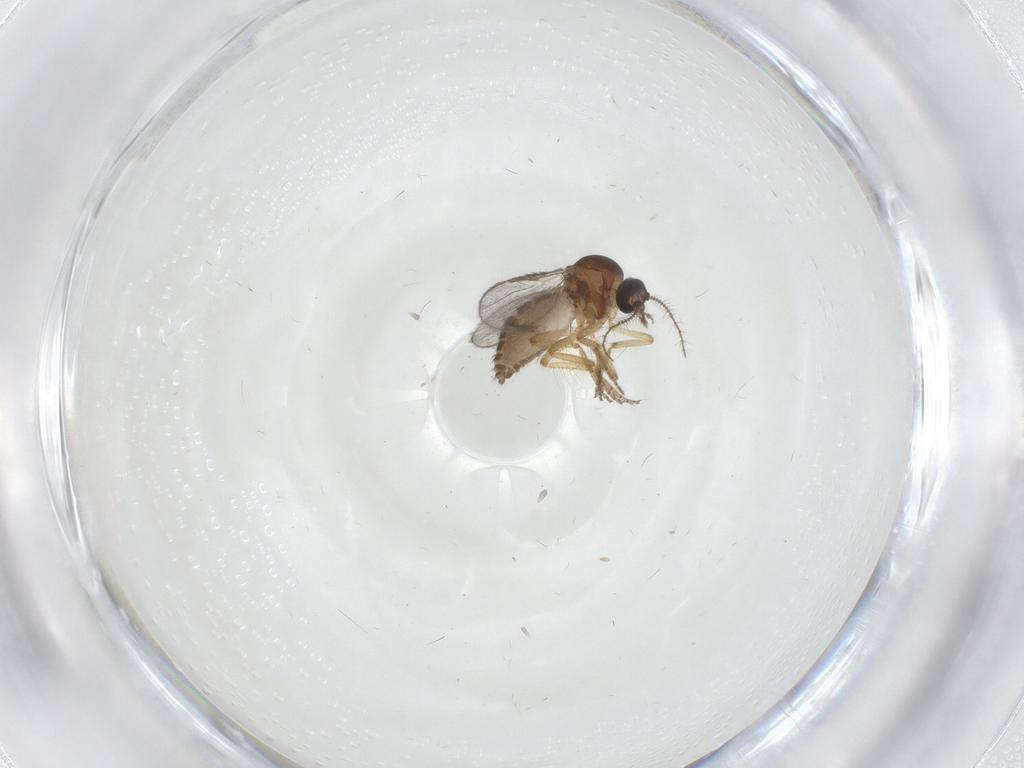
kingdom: Animalia
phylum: Arthropoda
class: Insecta
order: Diptera
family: Ceratopogonidae
